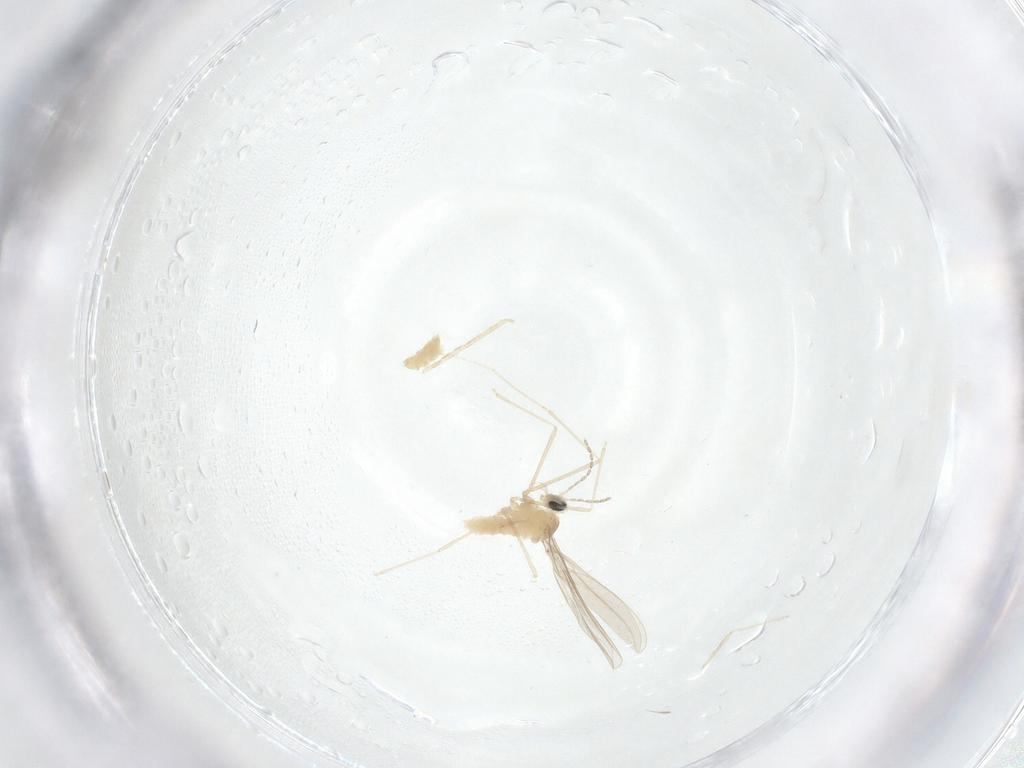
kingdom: Animalia
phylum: Arthropoda
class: Insecta
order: Diptera
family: Cecidomyiidae
